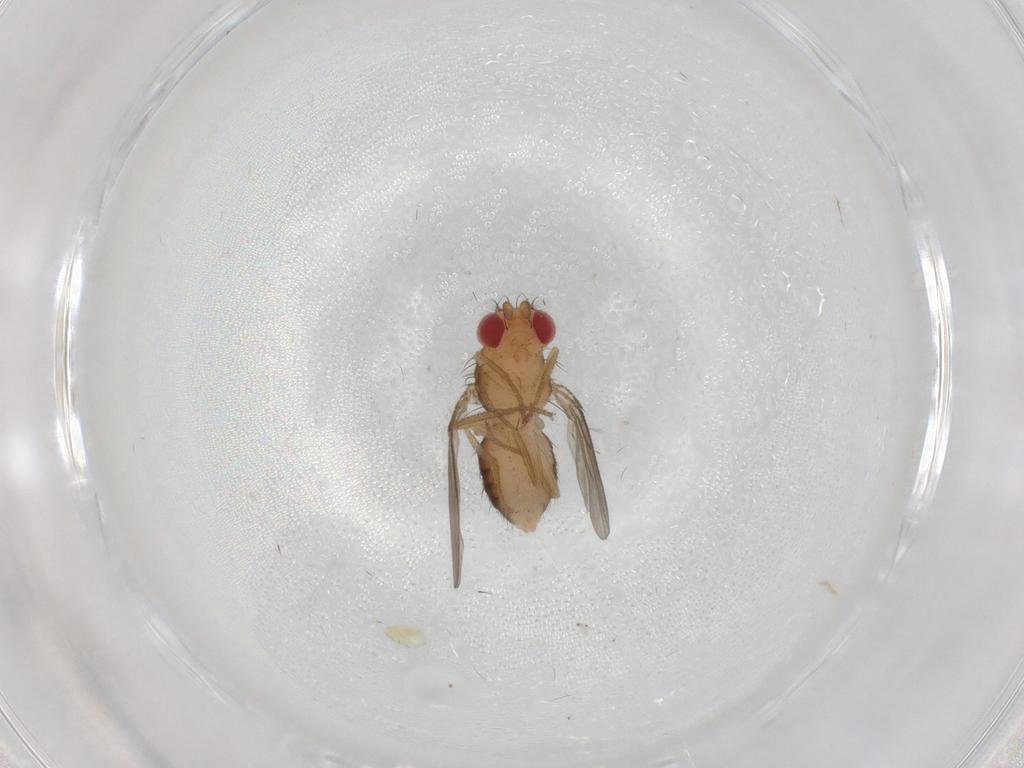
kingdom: Animalia
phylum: Arthropoda
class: Insecta
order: Diptera
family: Drosophilidae
